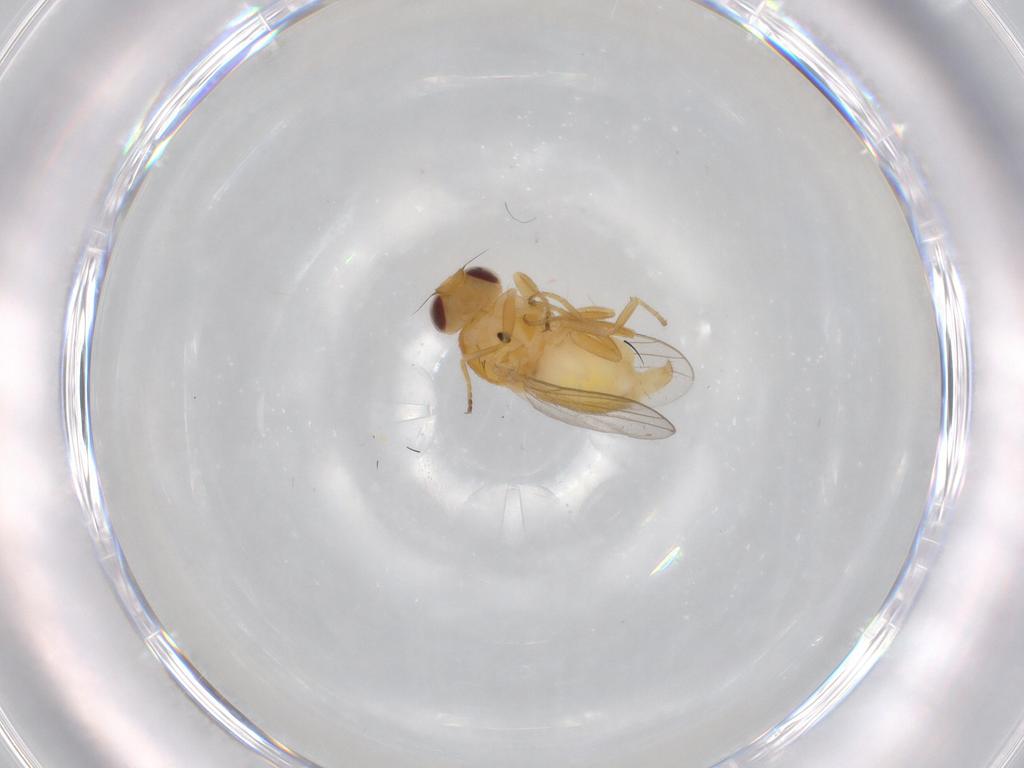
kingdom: Animalia
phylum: Arthropoda
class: Insecta
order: Diptera
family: Chloropidae
